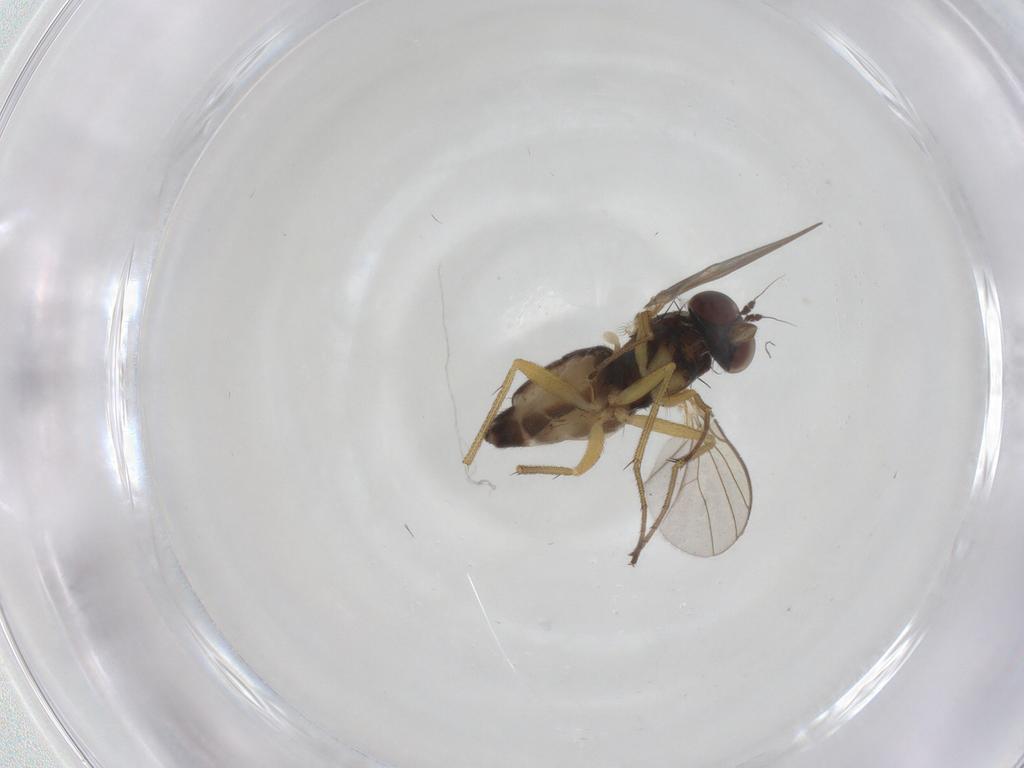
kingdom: Animalia
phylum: Arthropoda
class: Insecta
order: Diptera
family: Dolichopodidae
